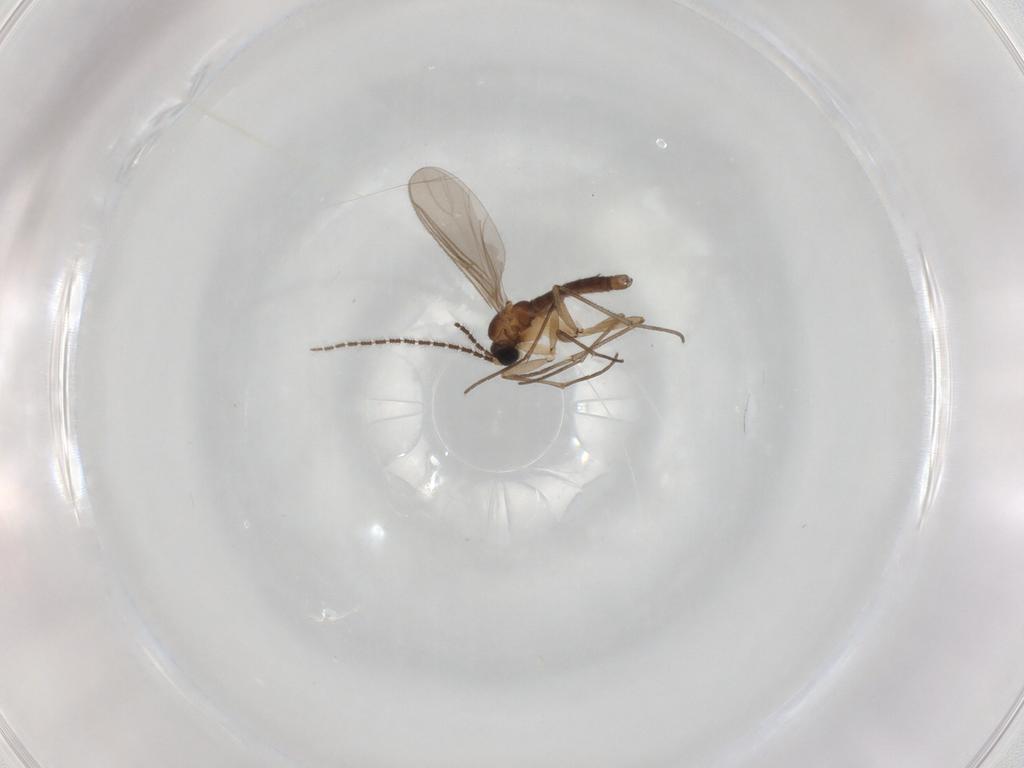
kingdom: Animalia
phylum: Arthropoda
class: Insecta
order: Diptera
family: Sciaridae
